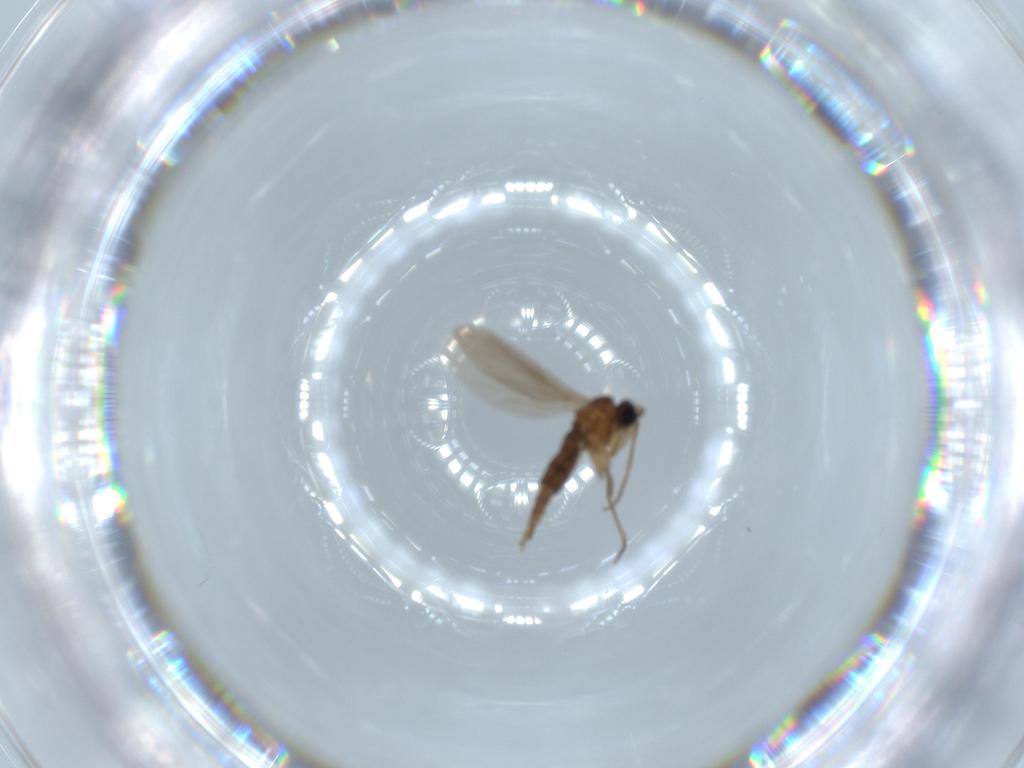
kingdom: Animalia
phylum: Arthropoda
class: Insecta
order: Diptera
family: Sciaridae
